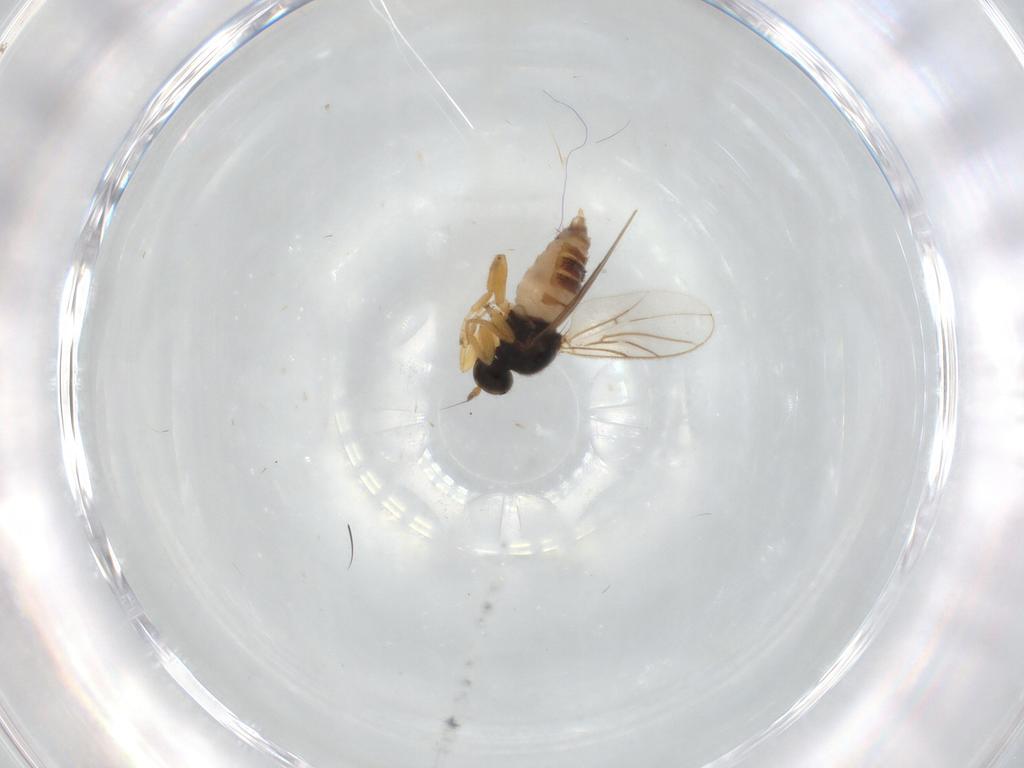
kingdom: Animalia
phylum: Arthropoda
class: Insecta
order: Diptera
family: Hybotidae
